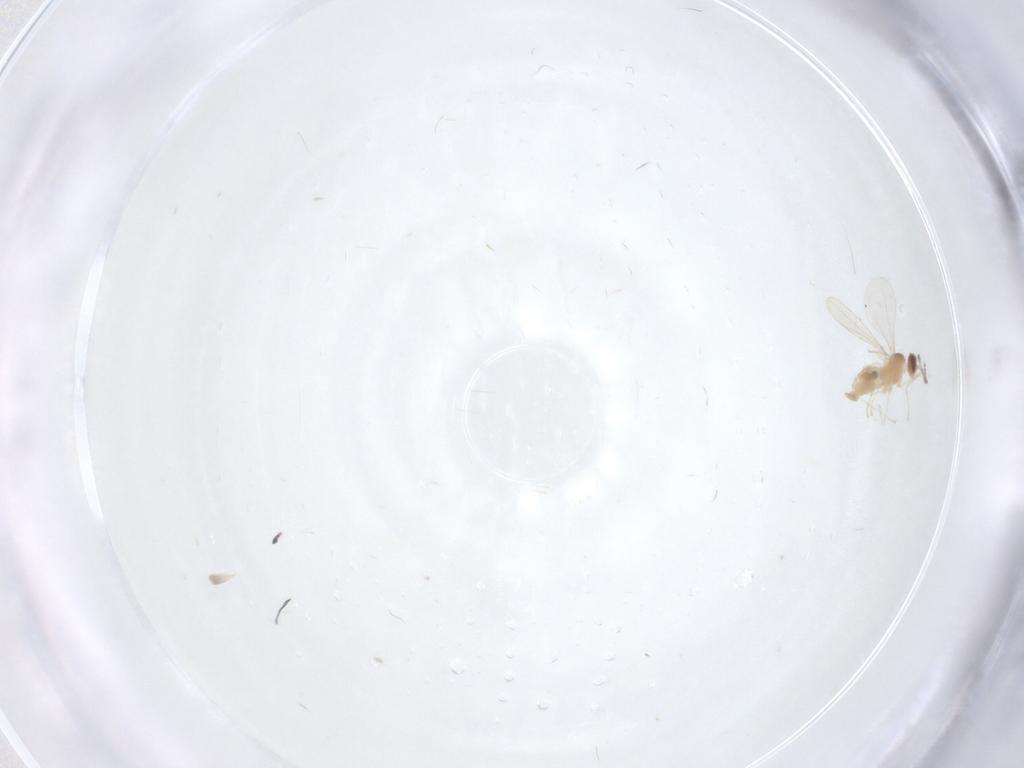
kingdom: Animalia
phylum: Arthropoda
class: Insecta
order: Diptera
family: Cecidomyiidae
